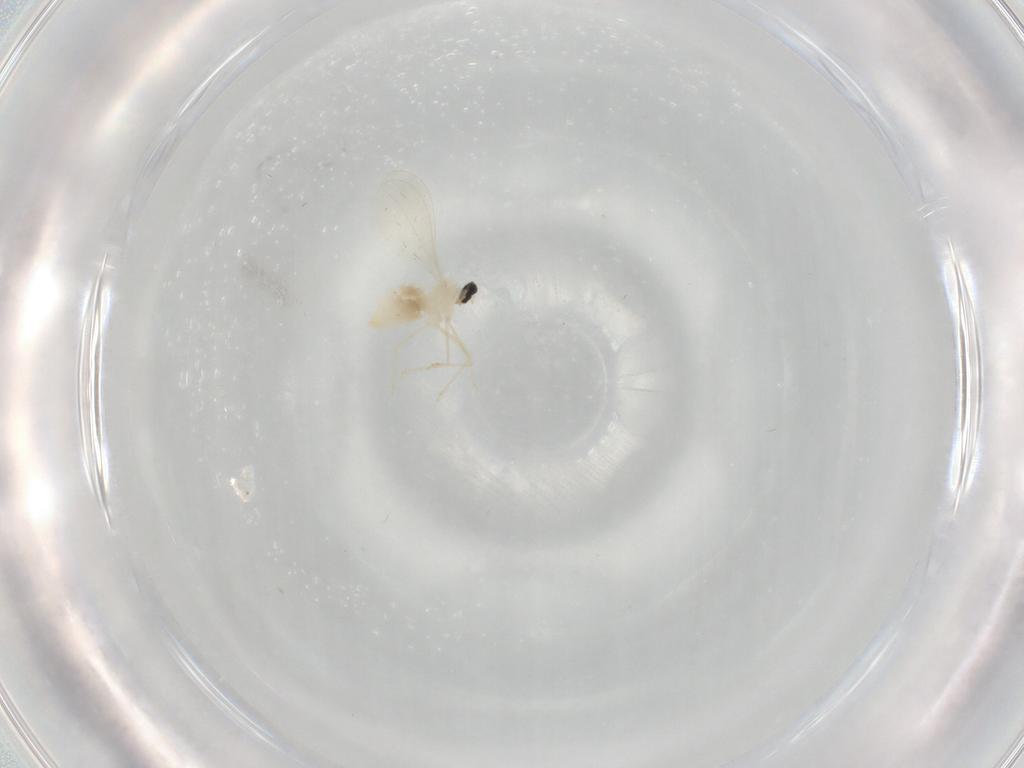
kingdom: Animalia
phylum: Arthropoda
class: Insecta
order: Diptera
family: Cecidomyiidae
